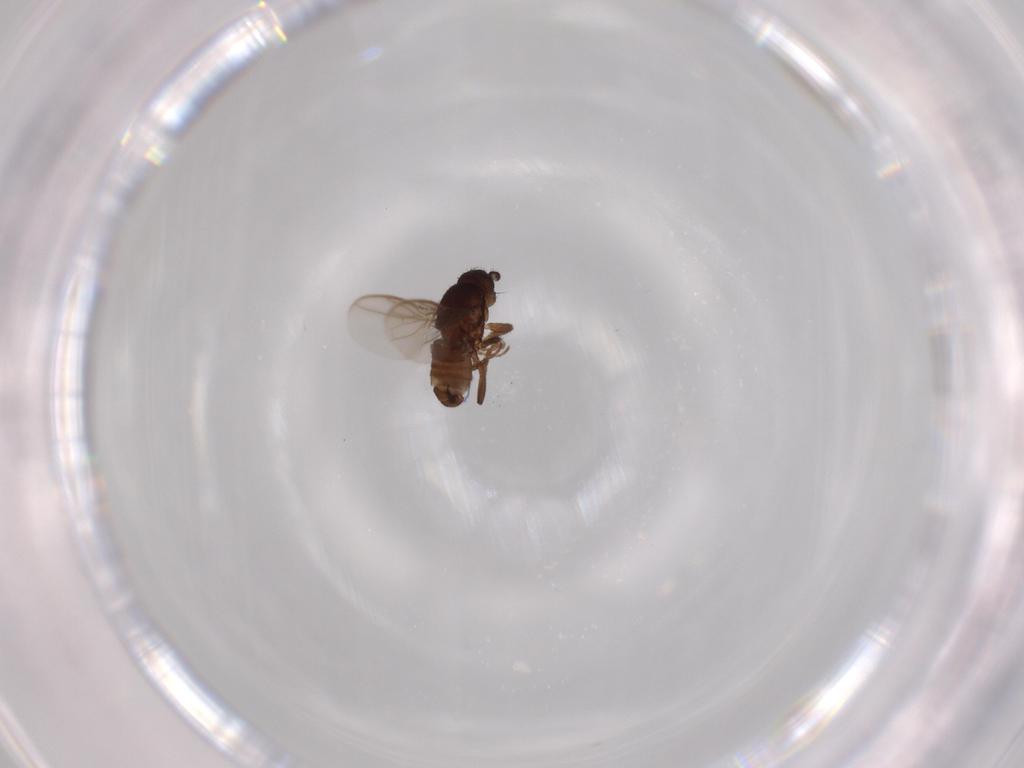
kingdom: Animalia
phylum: Arthropoda
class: Insecta
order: Diptera
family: Sphaeroceridae
